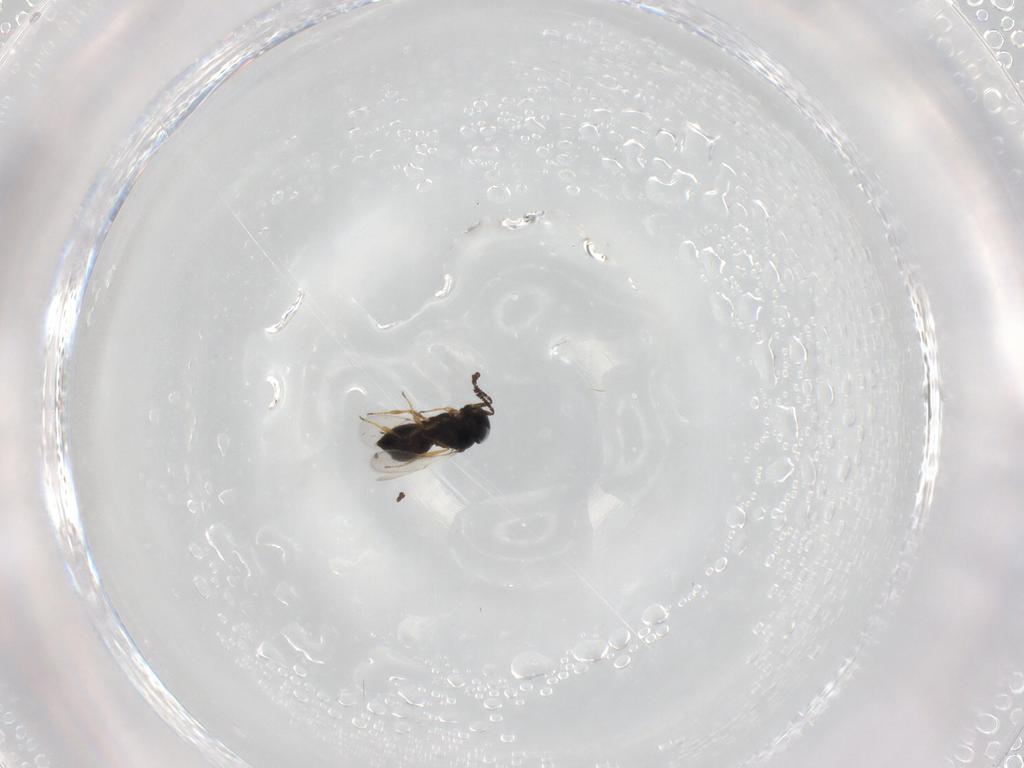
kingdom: Animalia
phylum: Arthropoda
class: Insecta
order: Hymenoptera
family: Scelionidae
